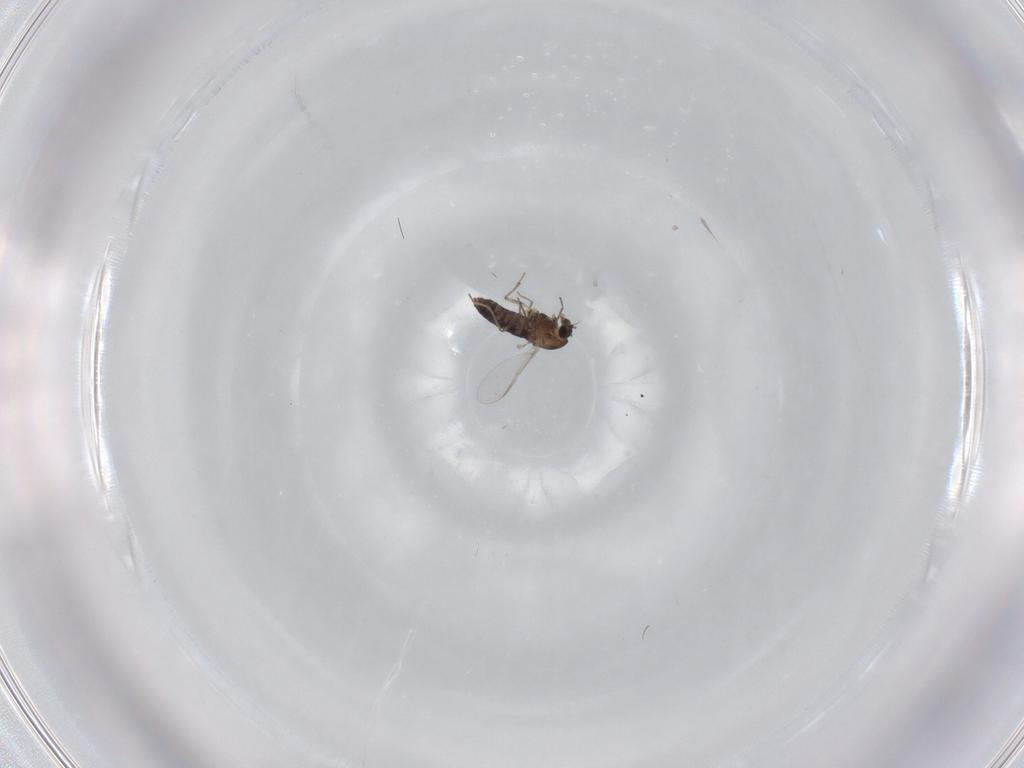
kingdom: Animalia
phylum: Arthropoda
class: Insecta
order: Diptera
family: Chironomidae
